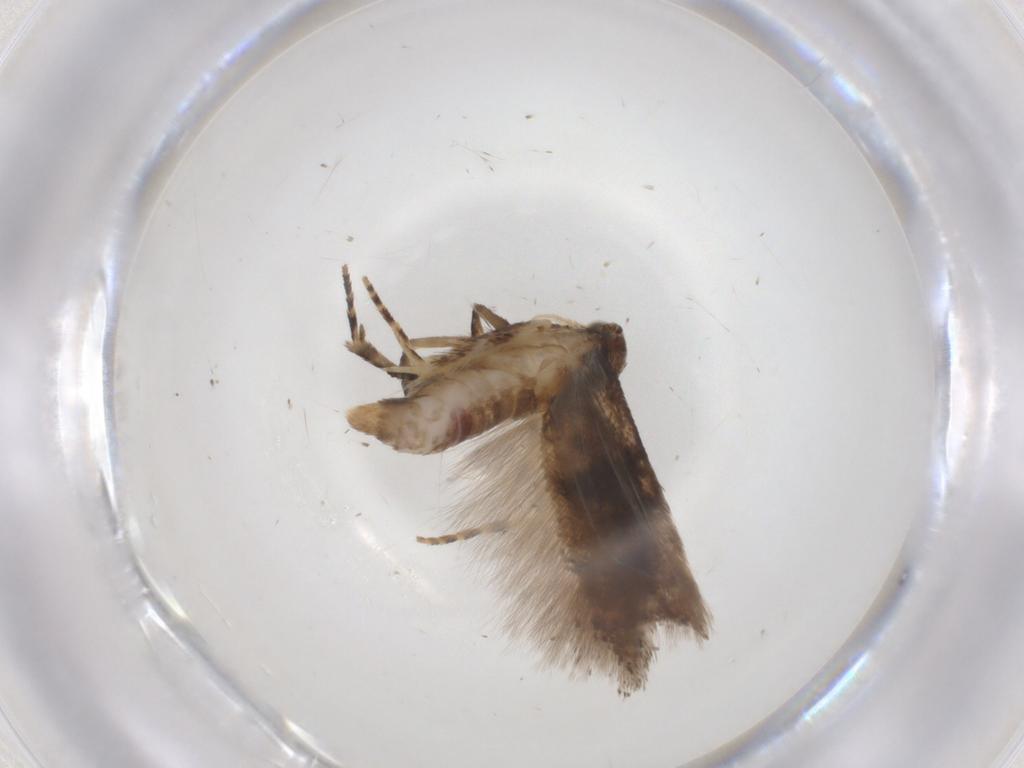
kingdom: Animalia
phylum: Arthropoda
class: Insecta
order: Lepidoptera
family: Gelechiidae
